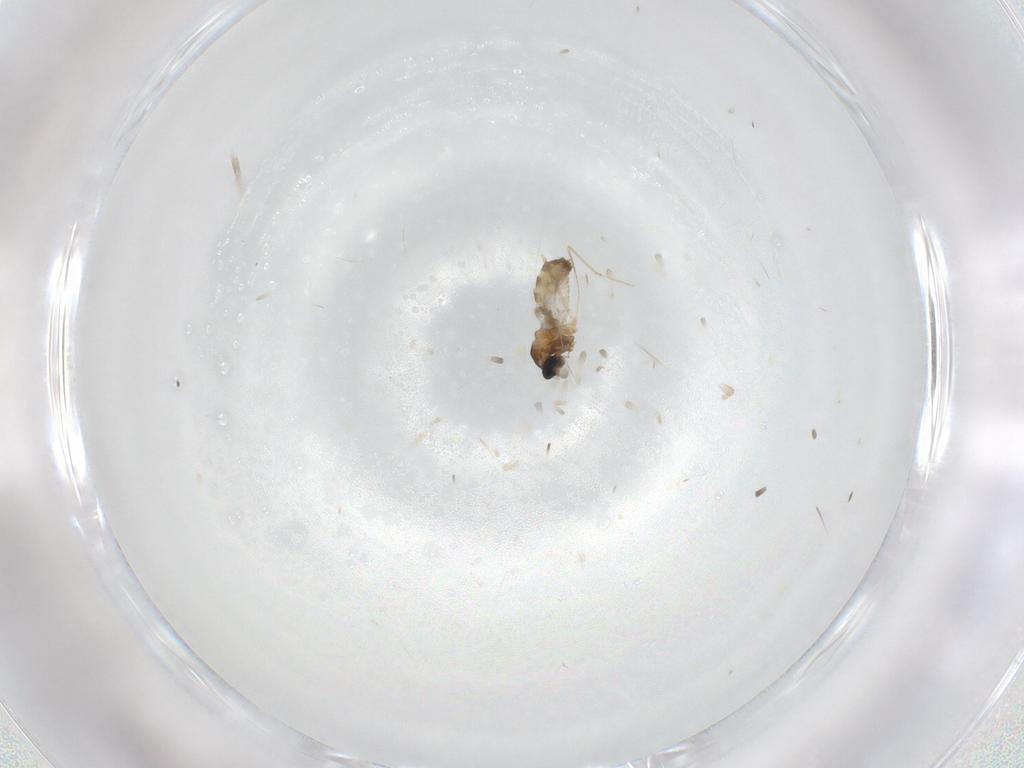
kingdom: Animalia
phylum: Arthropoda
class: Insecta
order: Diptera
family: Cecidomyiidae
